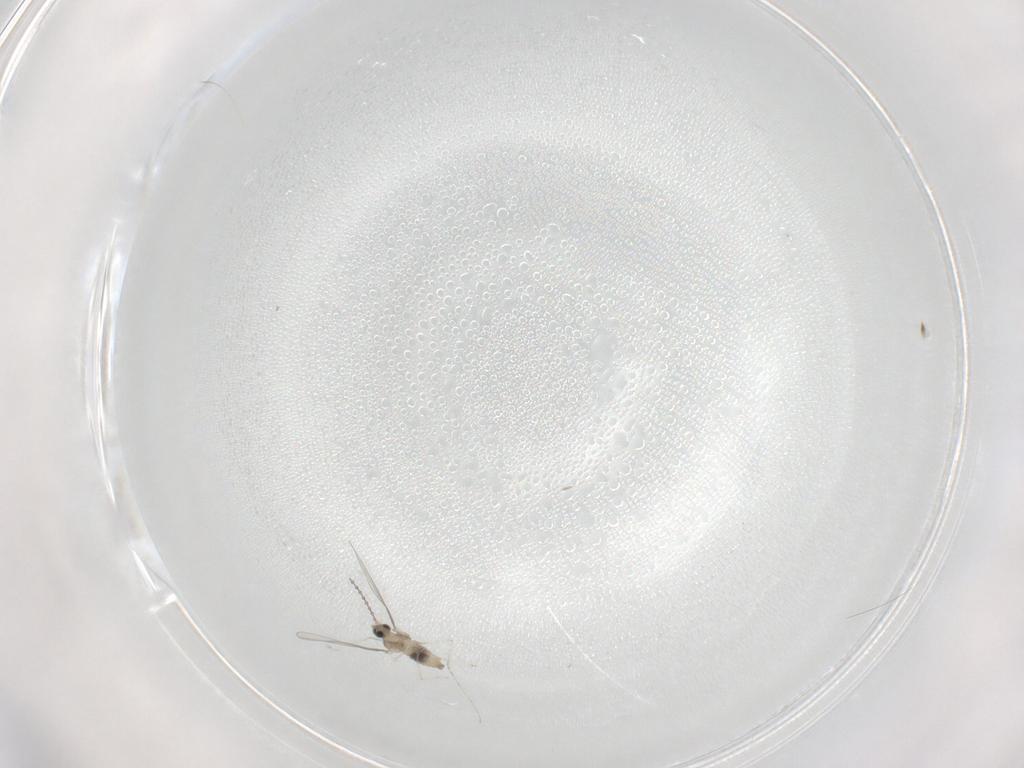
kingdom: Animalia
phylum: Arthropoda
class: Insecta
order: Diptera
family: Chironomidae
